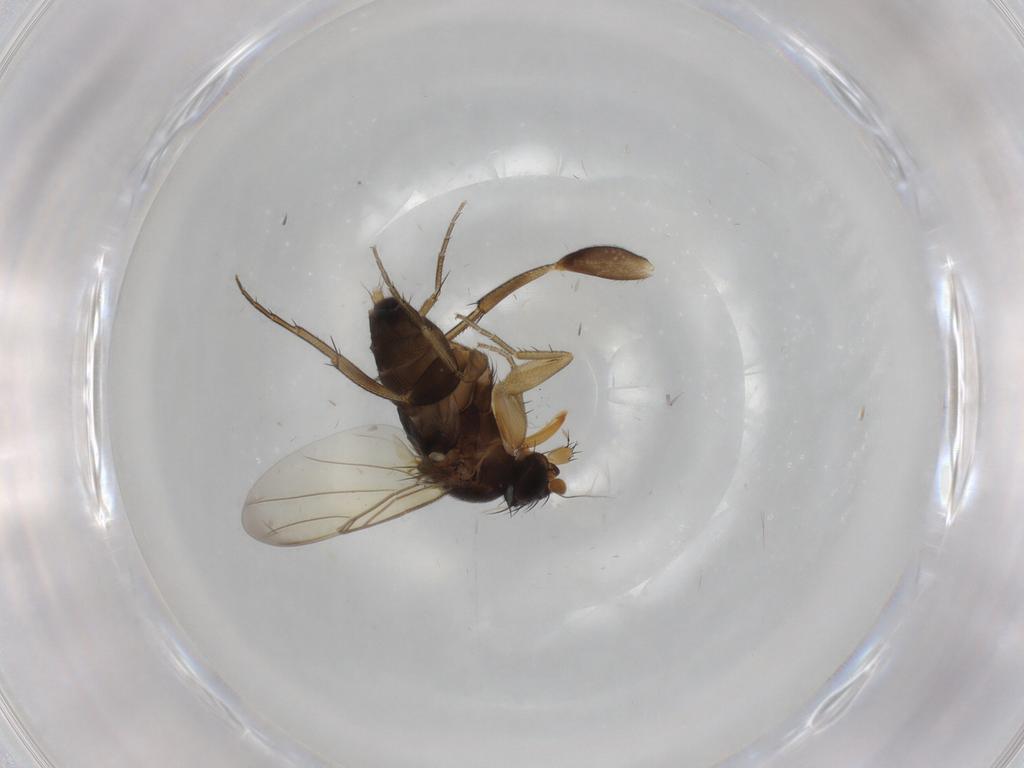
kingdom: Animalia
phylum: Arthropoda
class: Insecta
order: Diptera
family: Phoridae
